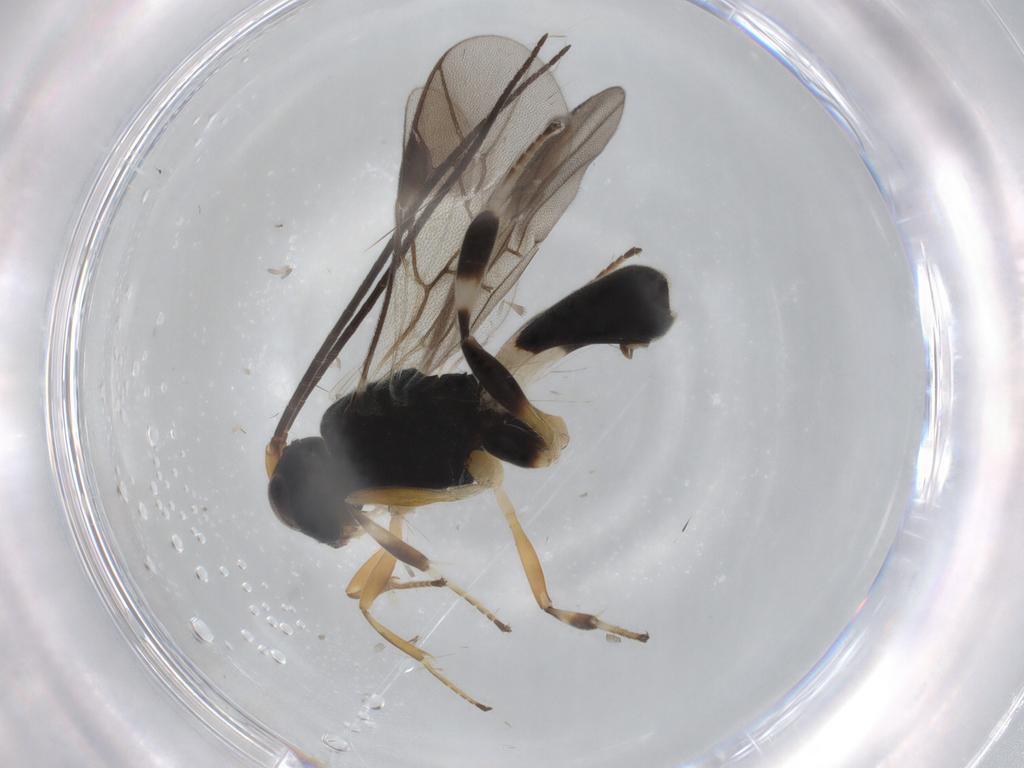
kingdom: Animalia
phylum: Arthropoda
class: Insecta
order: Hymenoptera
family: Braconidae
